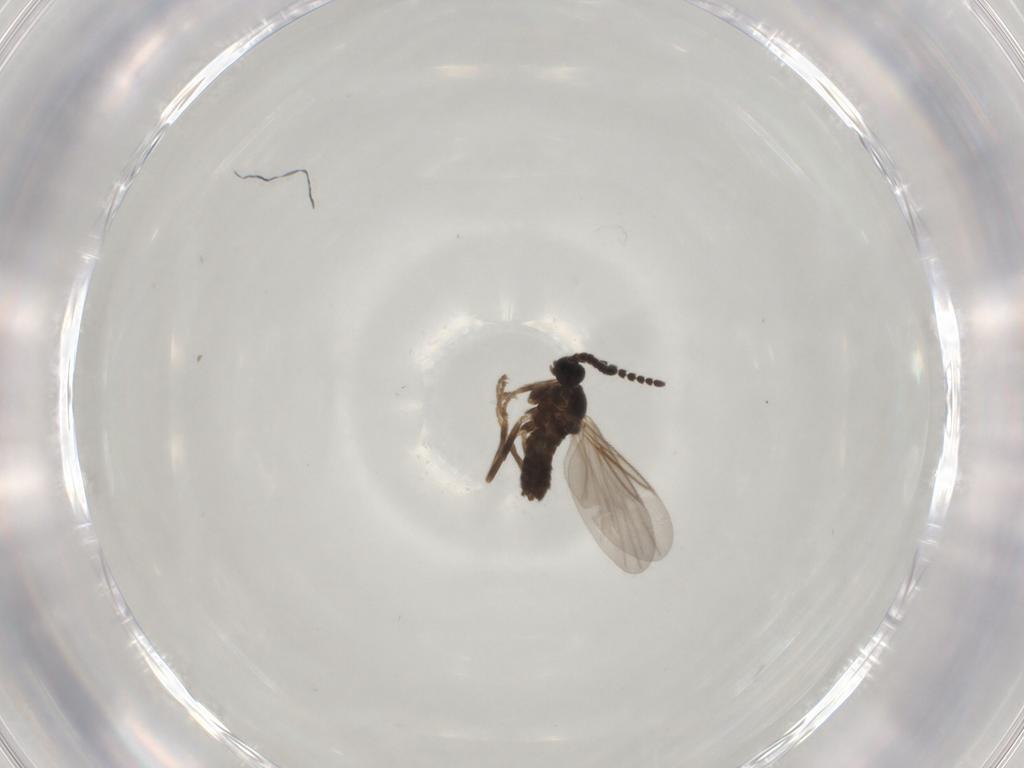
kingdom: Animalia
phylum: Arthropoda
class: Insecta
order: Diptera
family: Scatopsidae
